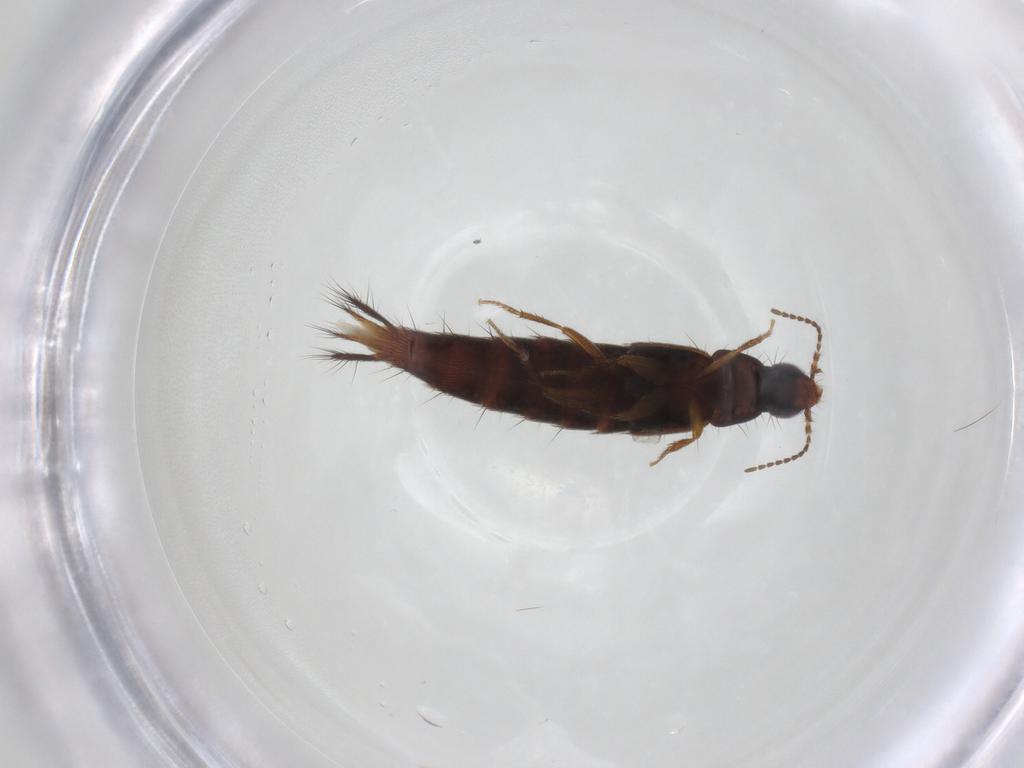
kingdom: Animalia
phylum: Arthropoda
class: Insecta
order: Coleoptera
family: Staphylinidae
